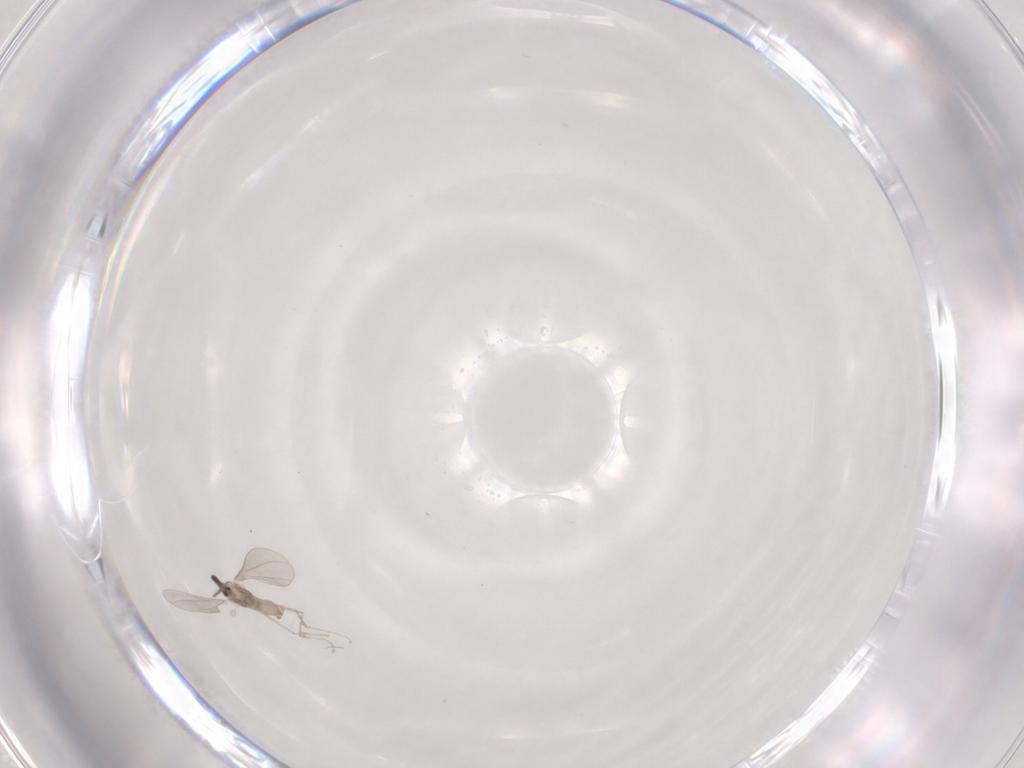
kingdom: Animalia
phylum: Arthropoda
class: Insecta
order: Diptera
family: Cecidomyiidae
